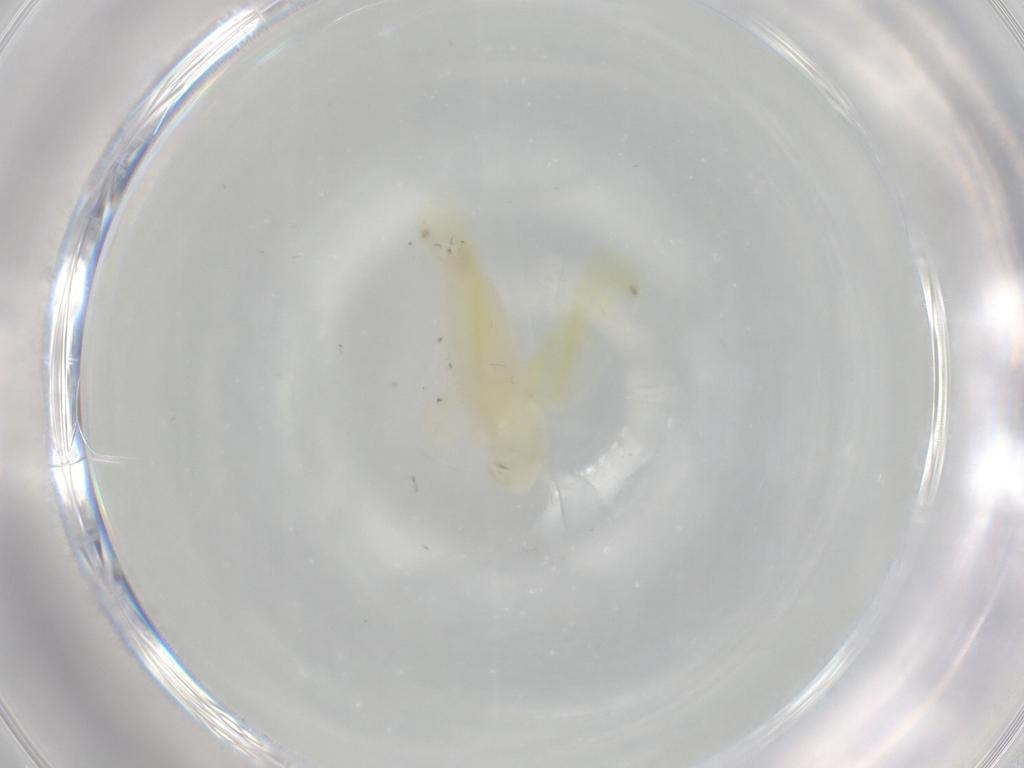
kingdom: Animalia
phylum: Arthropoda
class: Insecta
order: Hemiptera
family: Cicadellidae
